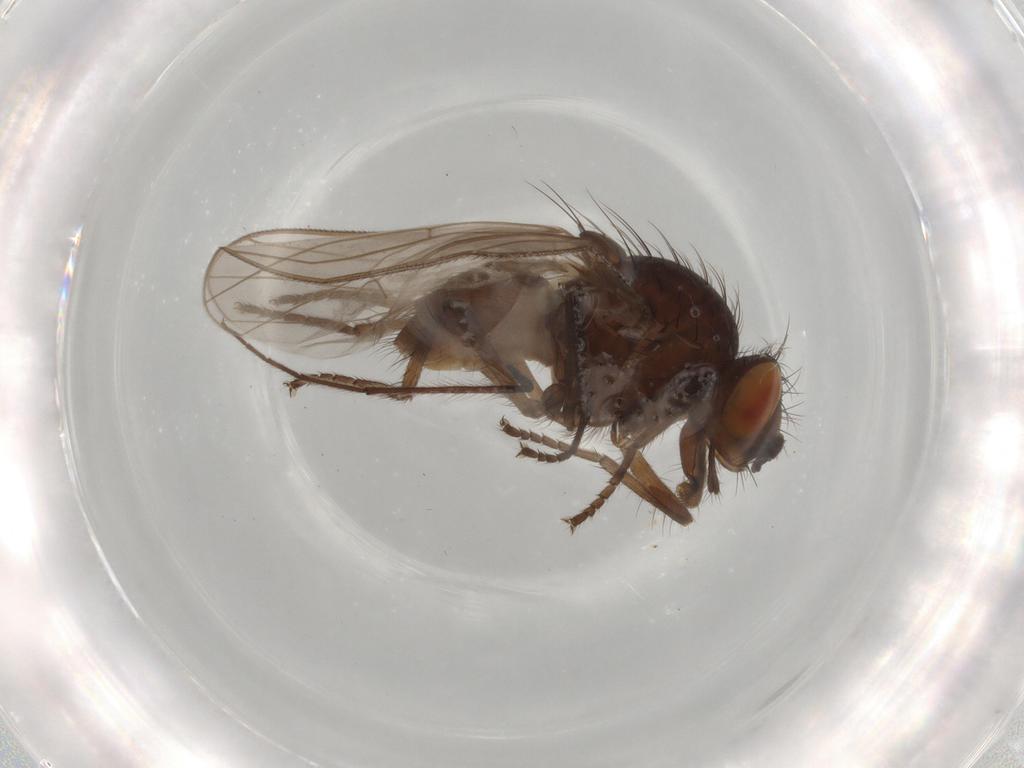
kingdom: Animalia
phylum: Arthropoda
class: Insecta
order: Diptera
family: Anthomyiidae
